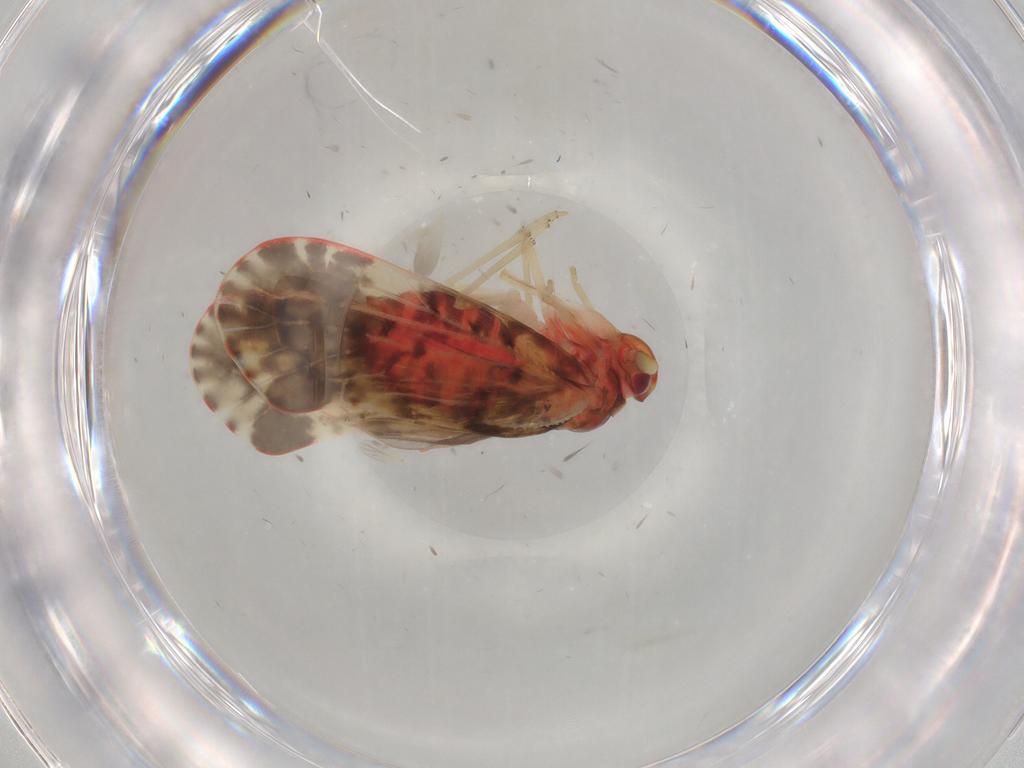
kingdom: Animalia
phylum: Arthropoda
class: Insecta
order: Hemiptera
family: Derbidae
